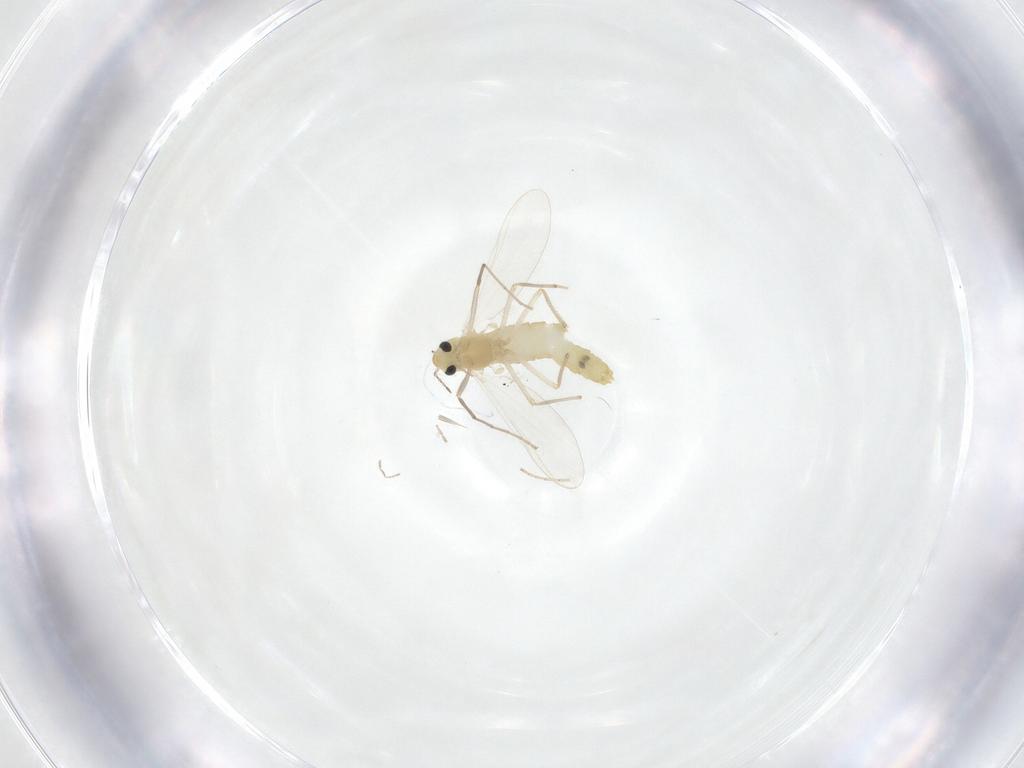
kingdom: Animalia
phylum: Arthropoda
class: Insecta
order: Diptera
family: Chironomidae
